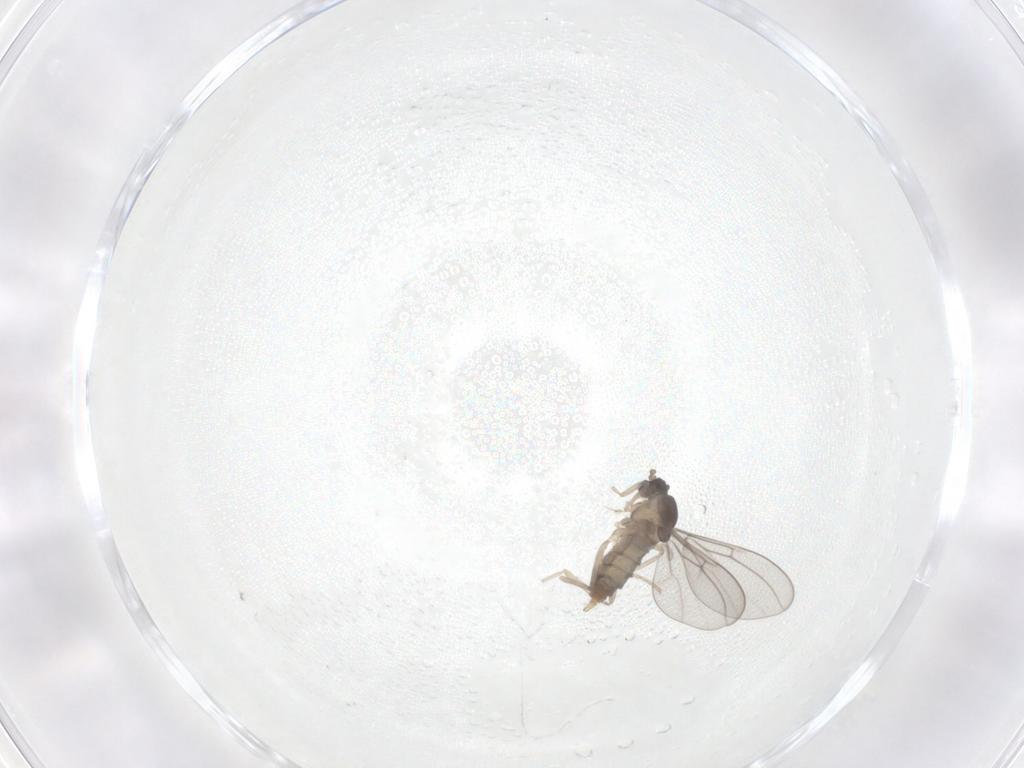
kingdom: Animalia
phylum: Arthropoda
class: Insecta
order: Diptera
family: Cecidomyiidae
